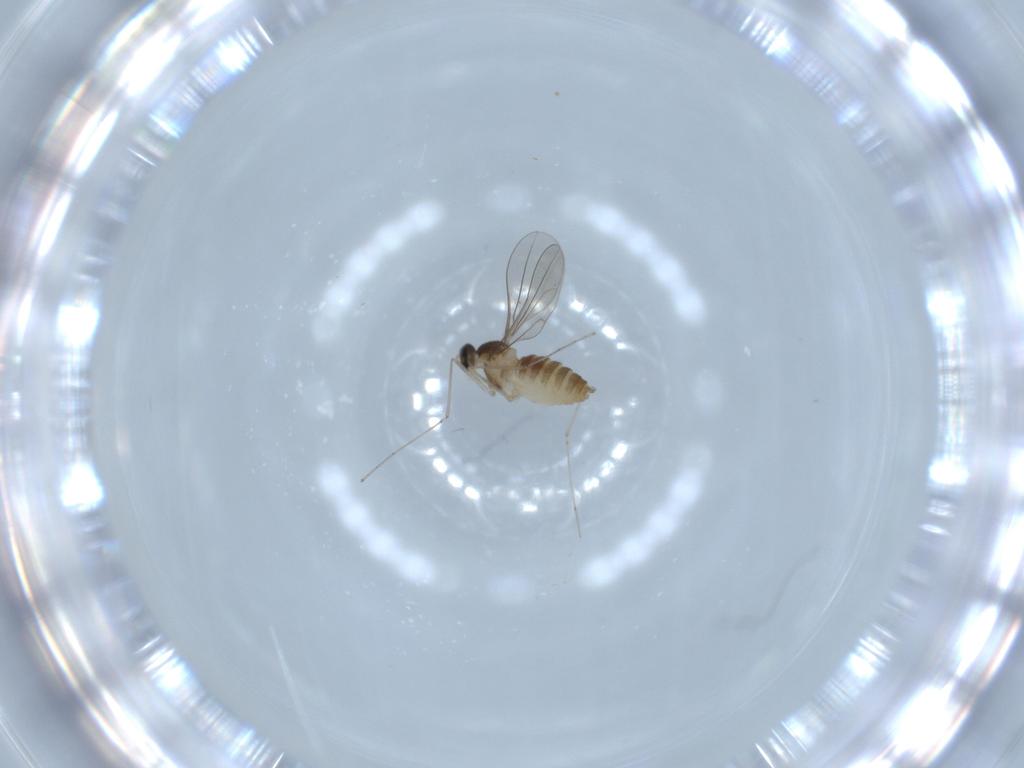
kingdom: Animalia
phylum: Arthropoda
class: Insecta
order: Diptera
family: Cecidomyiidae
